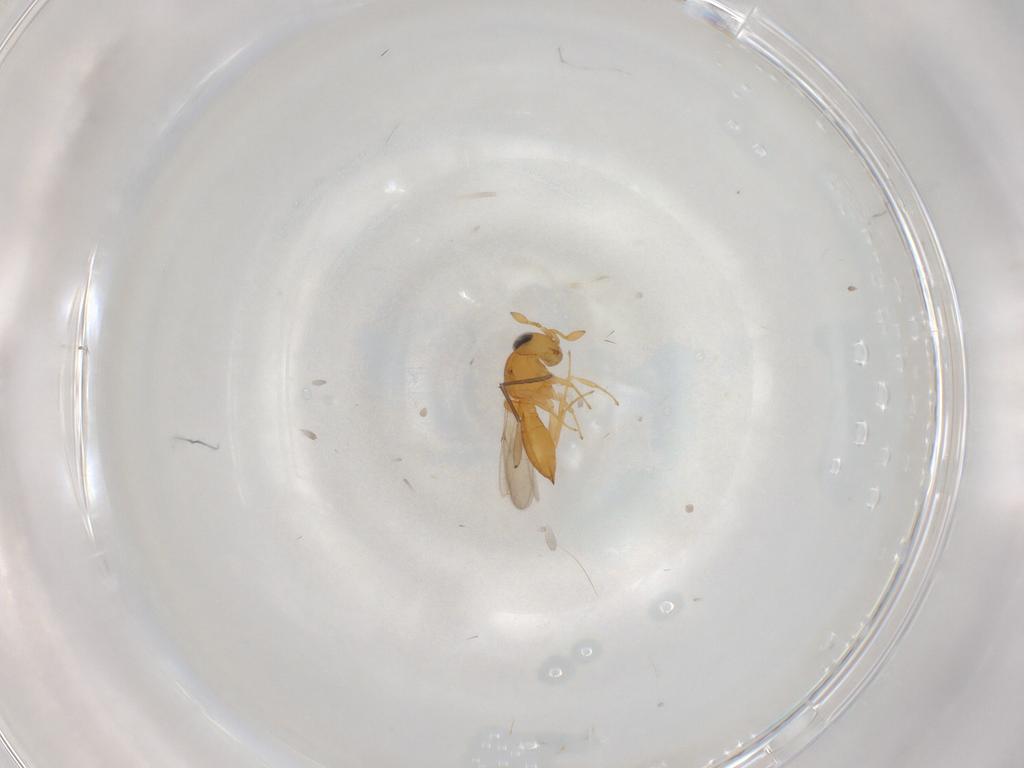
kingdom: Animalia
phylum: Arthropoda
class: Insecta
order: Hymenoptera
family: Scelionidae
